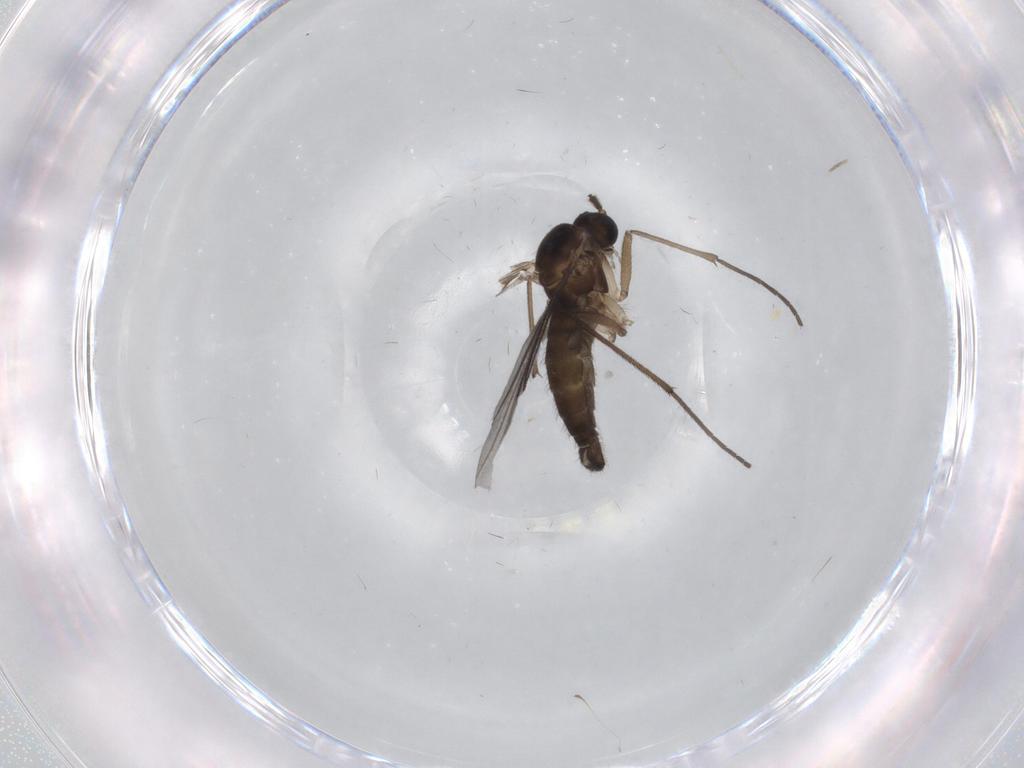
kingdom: Animalia
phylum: Arthropoda
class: Insecta
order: Diptera
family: Sciaridae
